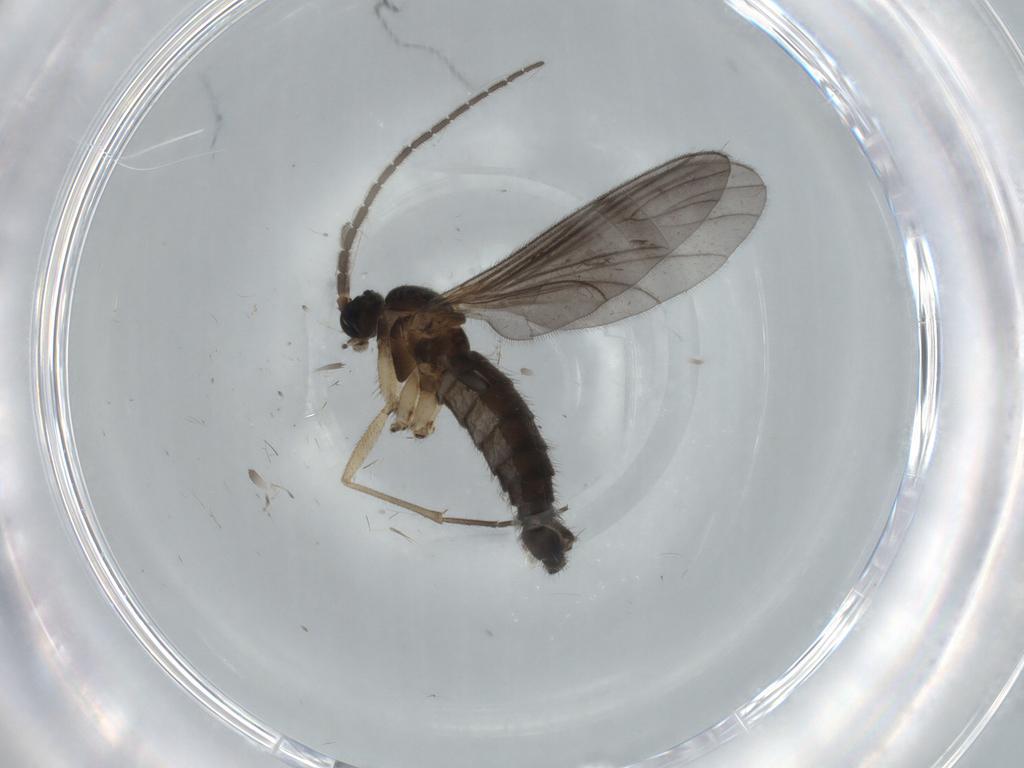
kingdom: Animalia
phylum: Arthropoda
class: Insecta
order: Diptera
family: Sciaridae
